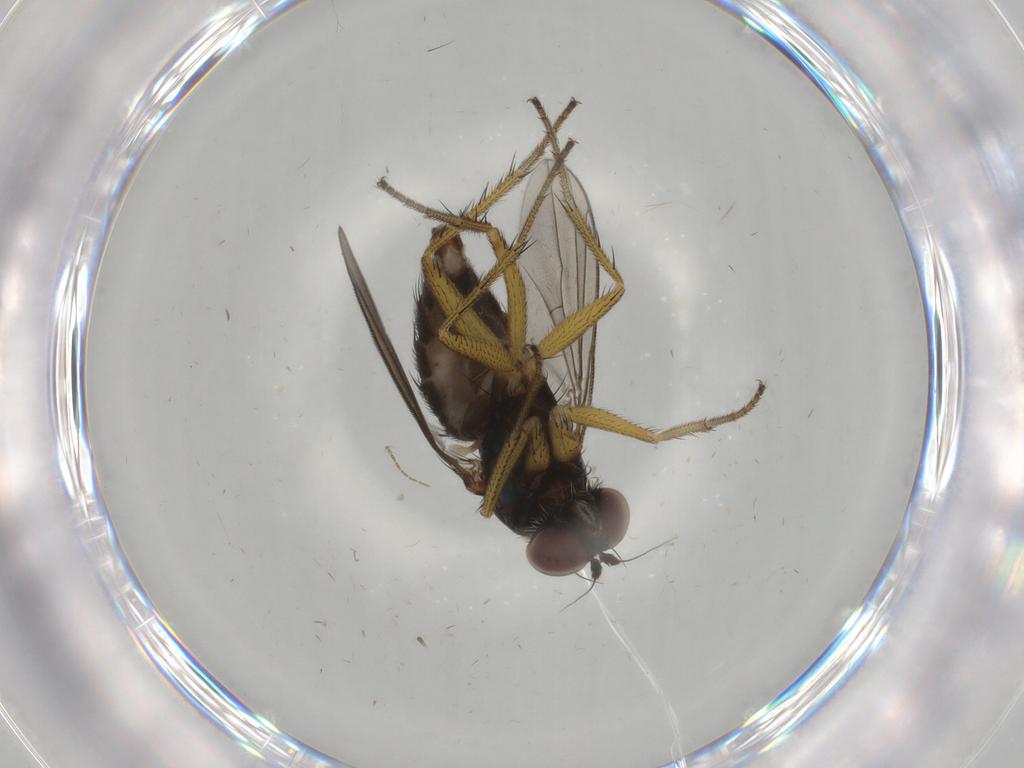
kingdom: Animalia
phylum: Arthropoda
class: Insecta
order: Diptera
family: Dolichopodidae
